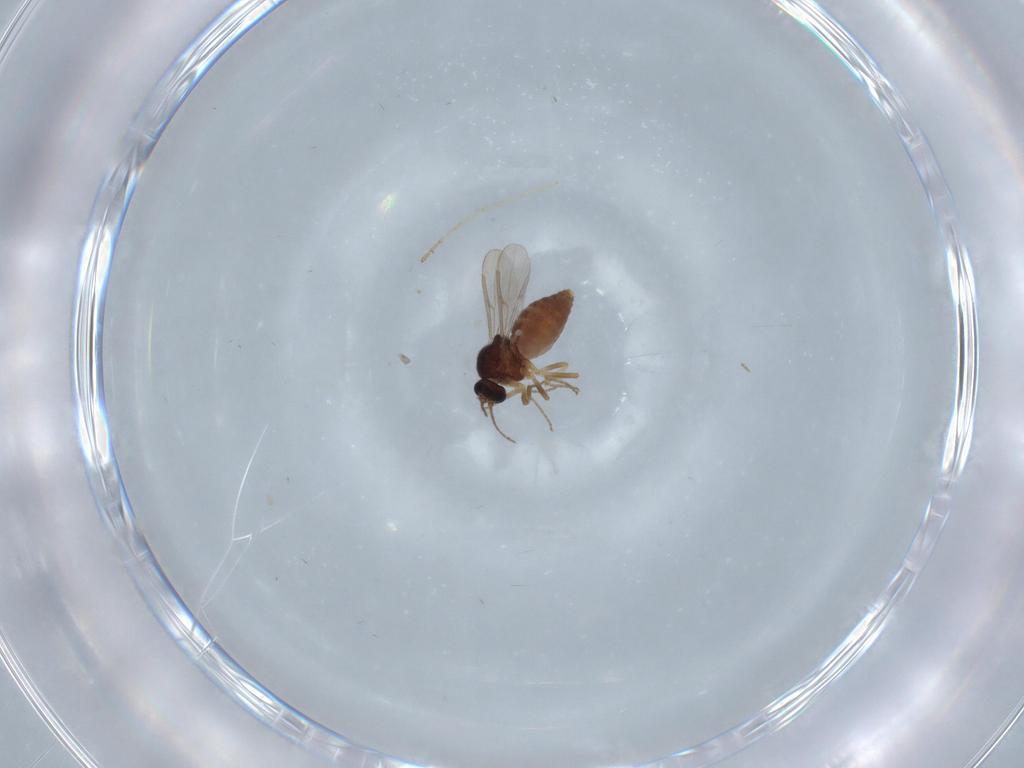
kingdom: Animalia
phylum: Arthropoda
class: Insecta
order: Diptera
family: Ceratopogonidae
